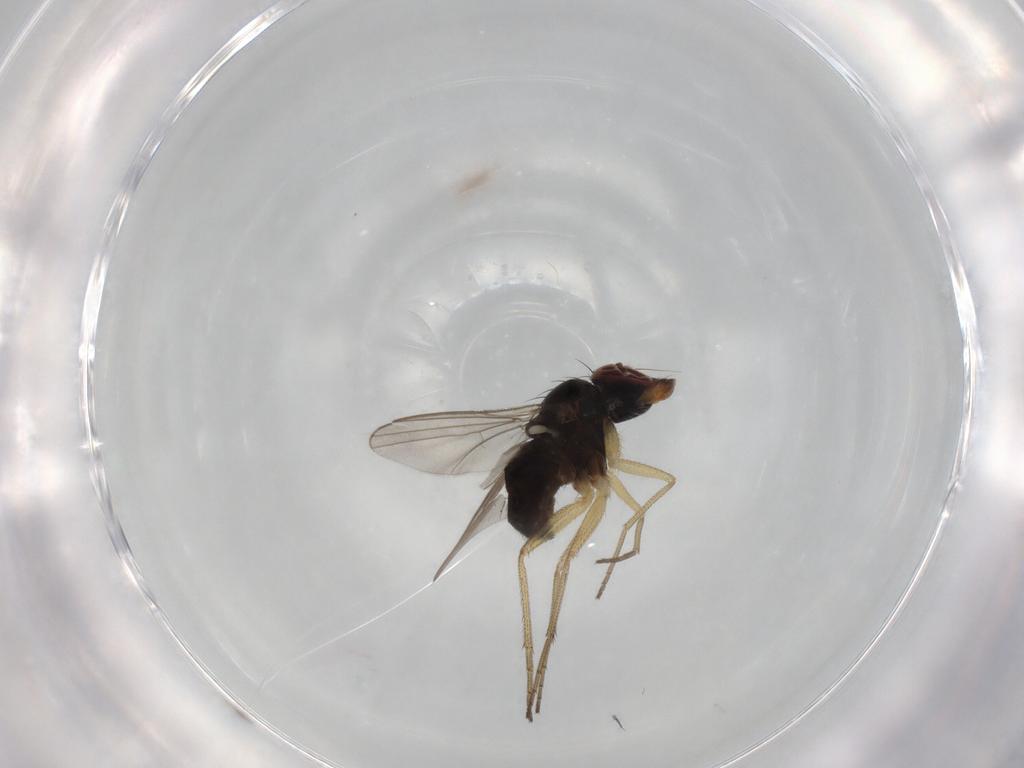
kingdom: Animalia
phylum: Arthropoda
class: Insecta
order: Diptera
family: Dolichopodidae
